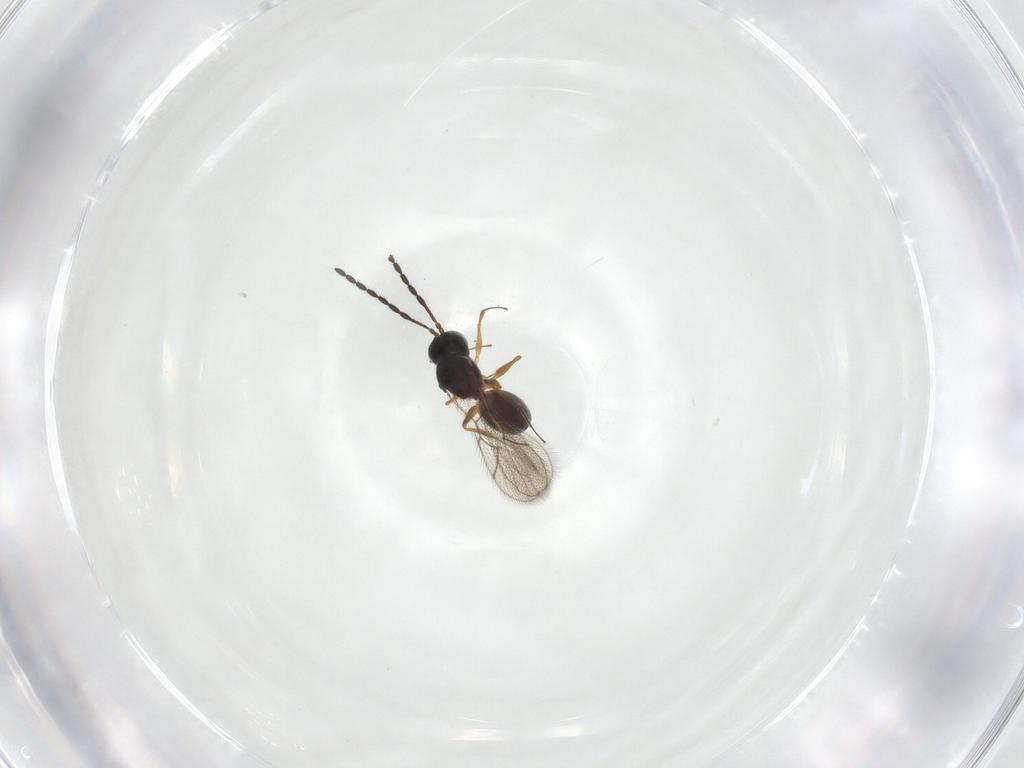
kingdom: Animalia
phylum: Arthropoda
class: Insecta
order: Hymenoptera
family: Figitidae
